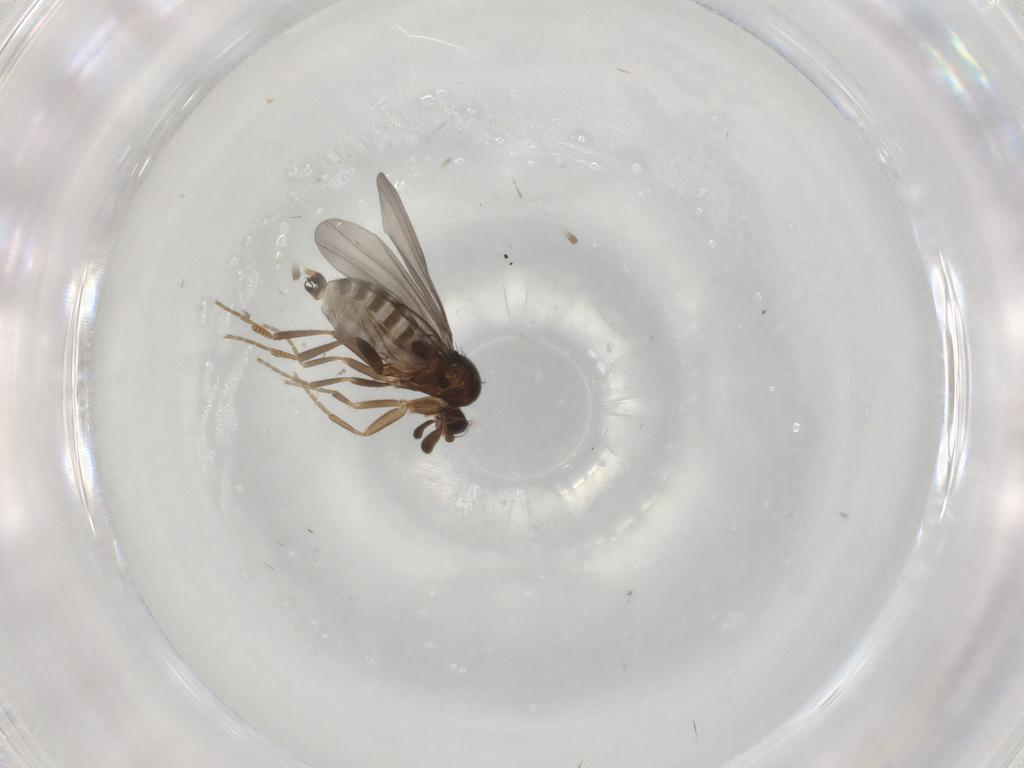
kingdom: Animalia
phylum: Arthropoda
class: Insecta
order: Diptera
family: Psychodidae
